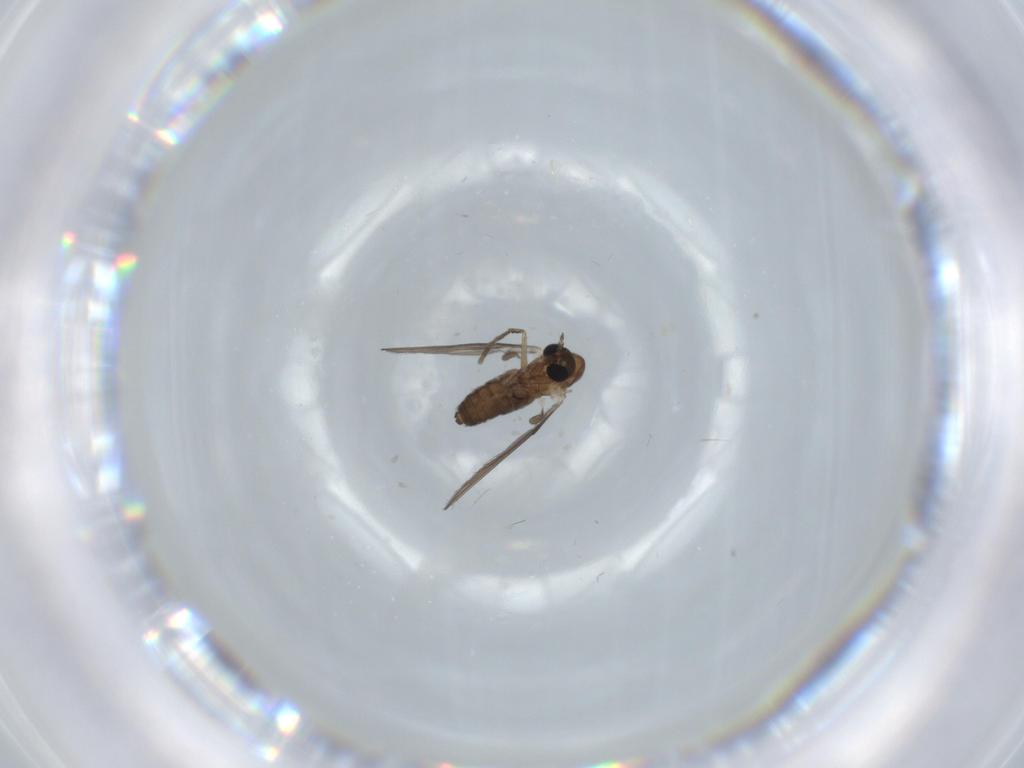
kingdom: Animalia
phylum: Arthropoda
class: Insecta
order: Diptera
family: Psychodidae
